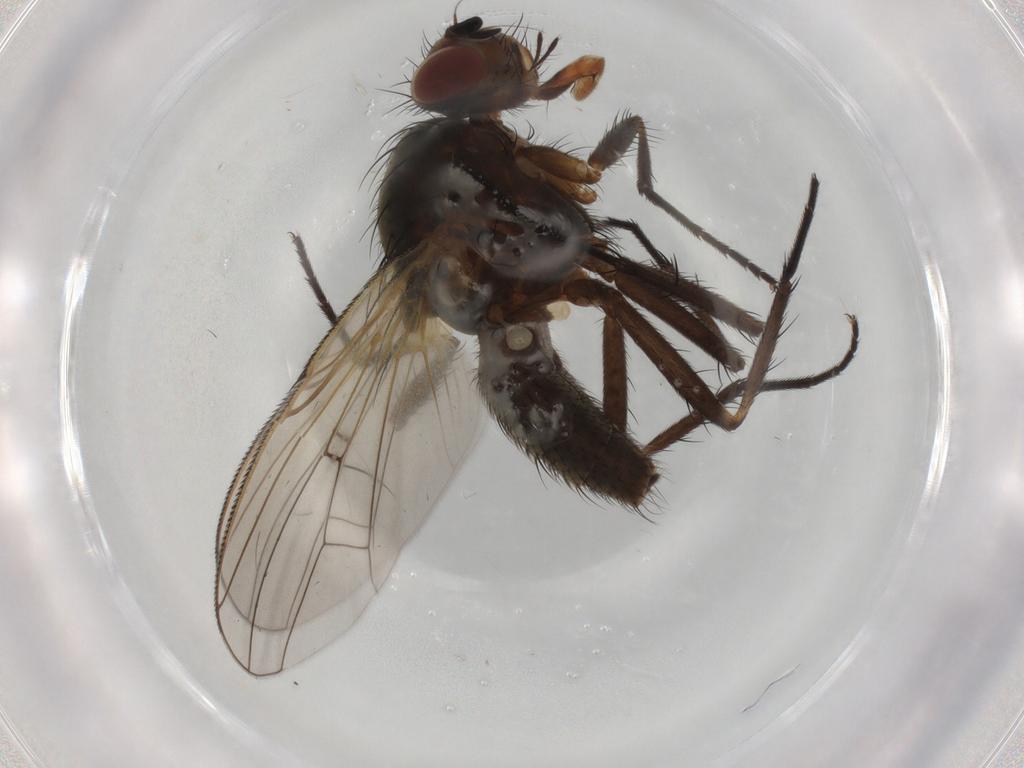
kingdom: Animalia
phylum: Arthropoda
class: Insecta
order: Diptera
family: Anthomyiidae
